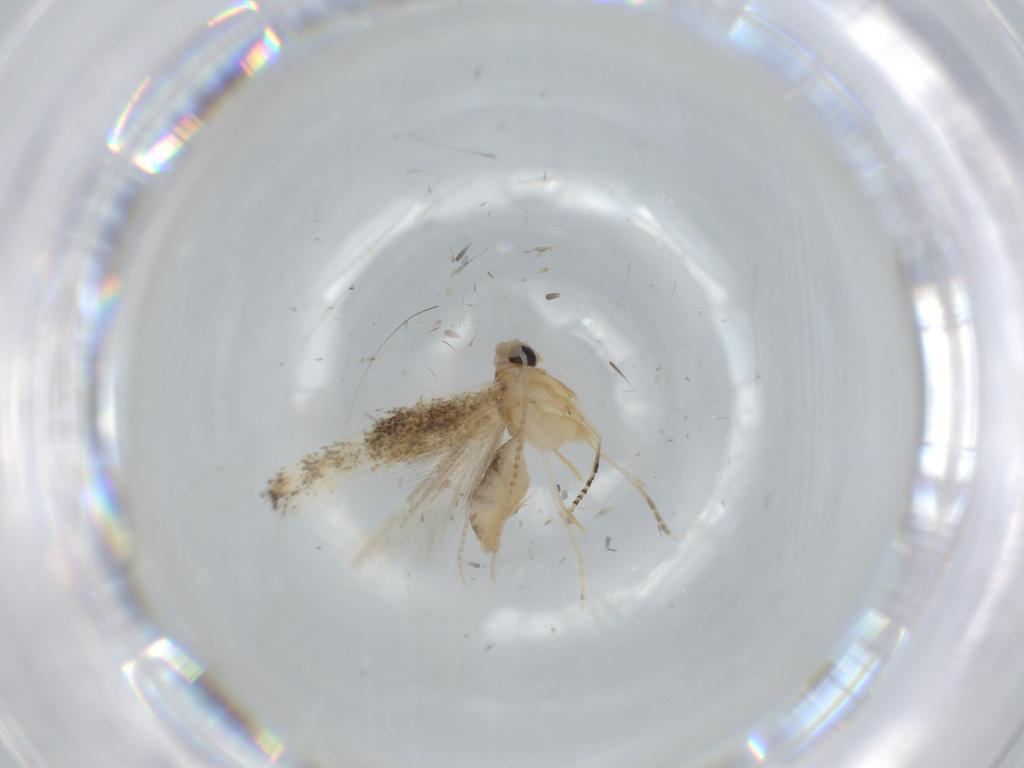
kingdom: Animalia
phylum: Arthropoda
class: Insecta
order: Lepidoptera
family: Bucculatricidae
